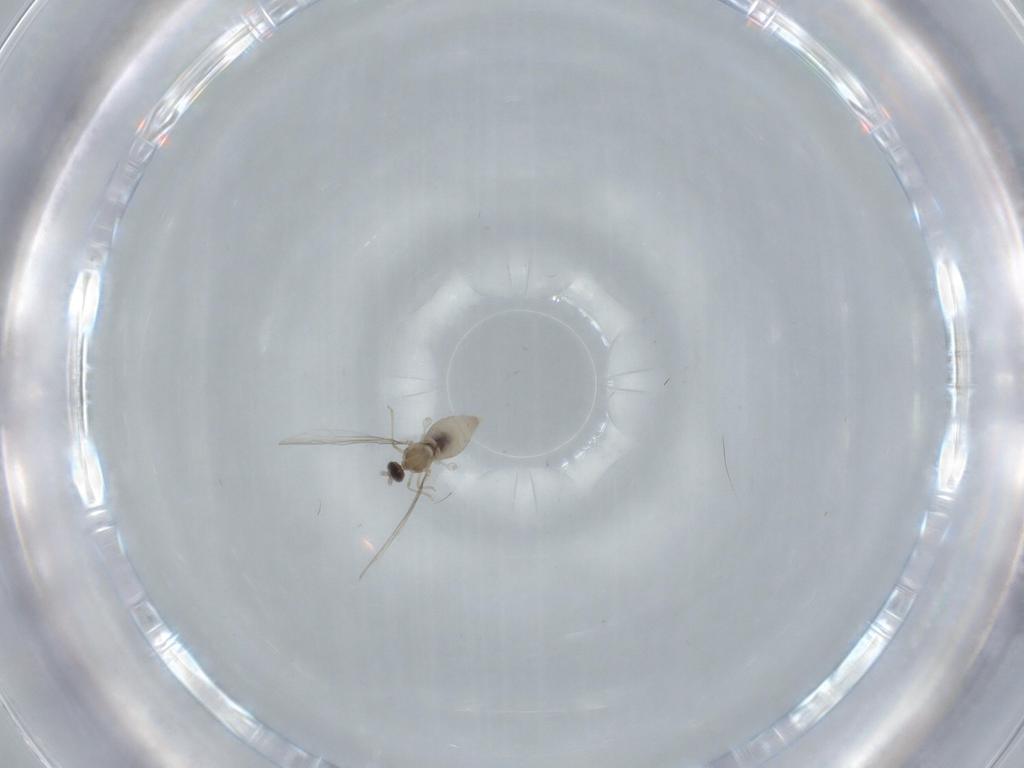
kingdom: Animalia
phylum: Arthropoda
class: Insecta
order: Diptera
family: Cecidomyiidae
